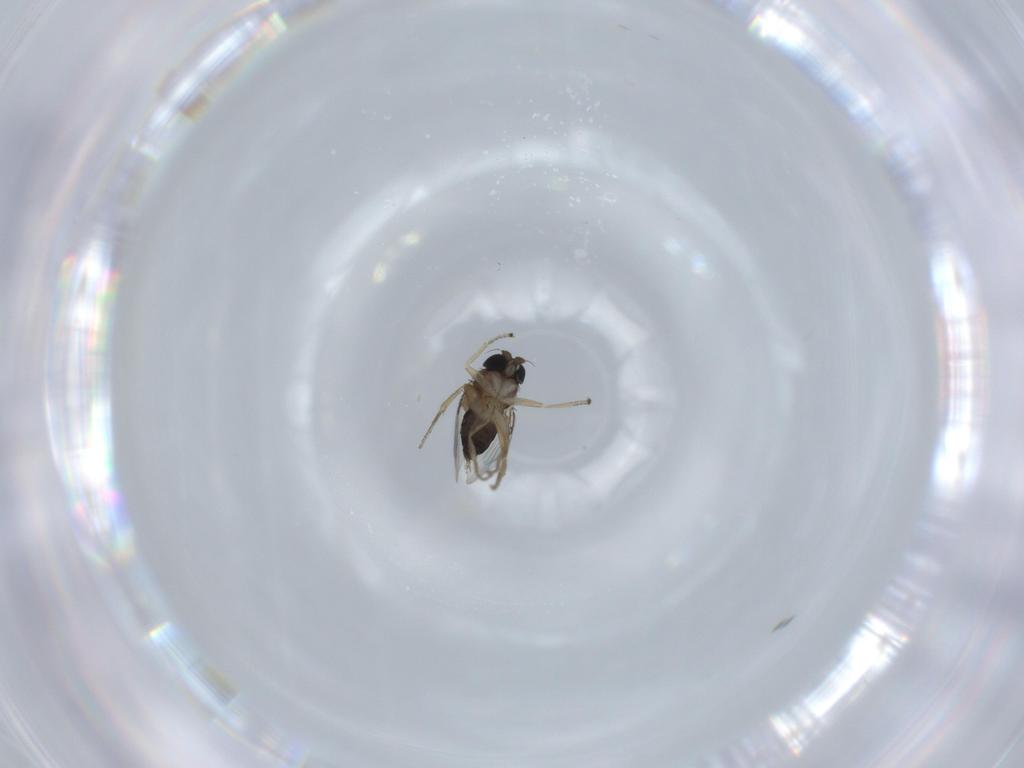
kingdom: Animalia
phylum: Arthropoda
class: Insecta
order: Diptera
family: Phoridae
